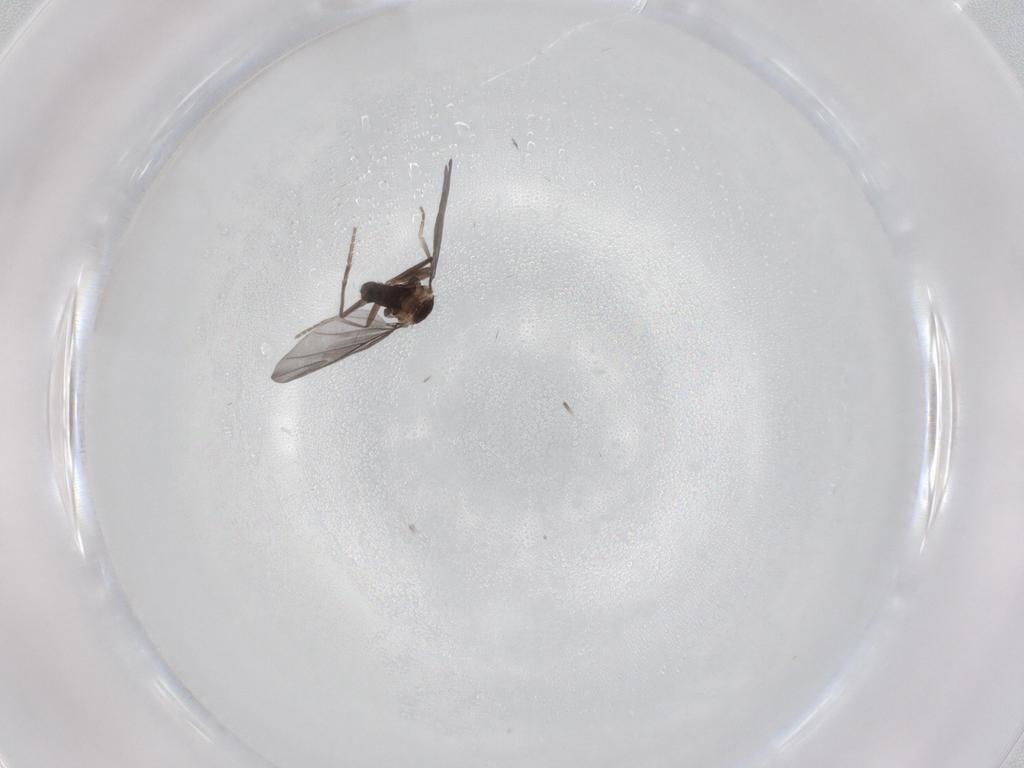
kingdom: Animalia
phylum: Arthropoda
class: Insecta
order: Diptera
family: Phoridae
